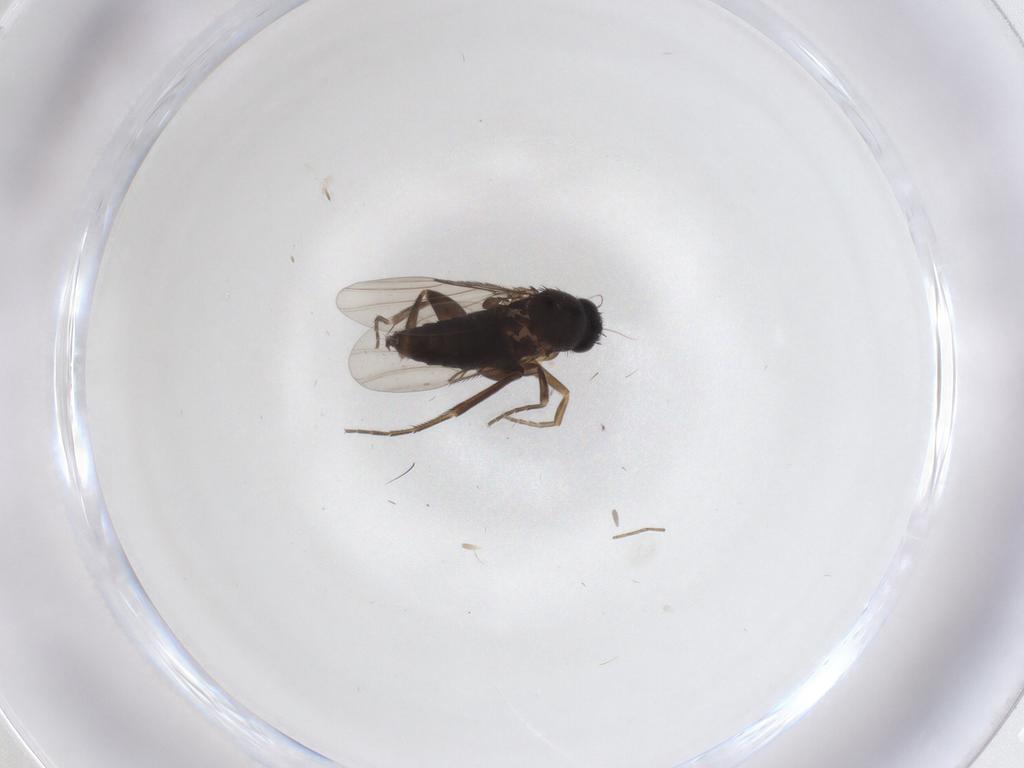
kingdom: Animalia
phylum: Arthropoda
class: Insecta
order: Diptera
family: Phoridae
